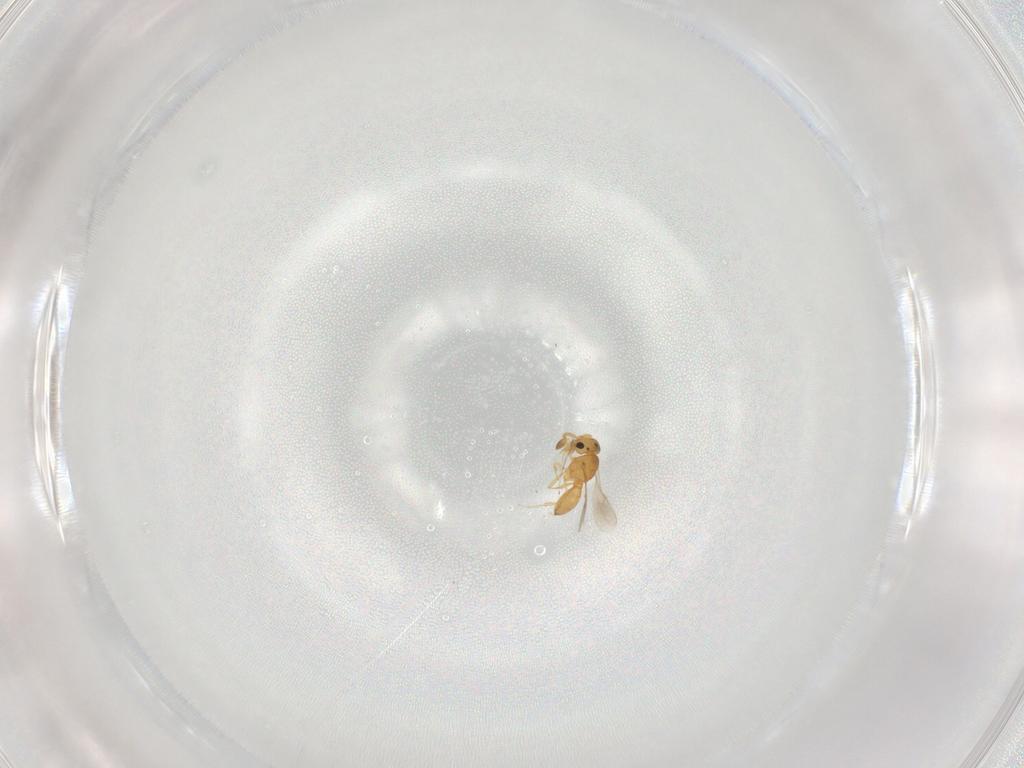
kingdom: Animalia
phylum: Arthropoda
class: Insecta
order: Hymenoptera
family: Scelionidae
